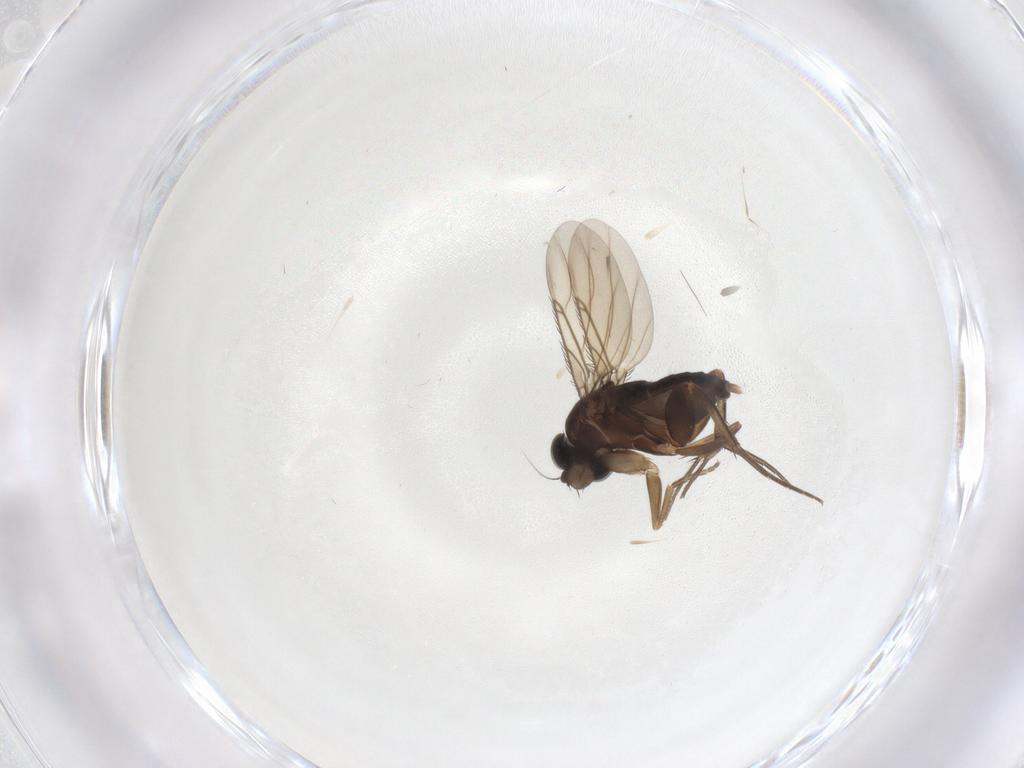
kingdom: Animalia
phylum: Arthropoda
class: Insecta
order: Diptera
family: Phoridae
